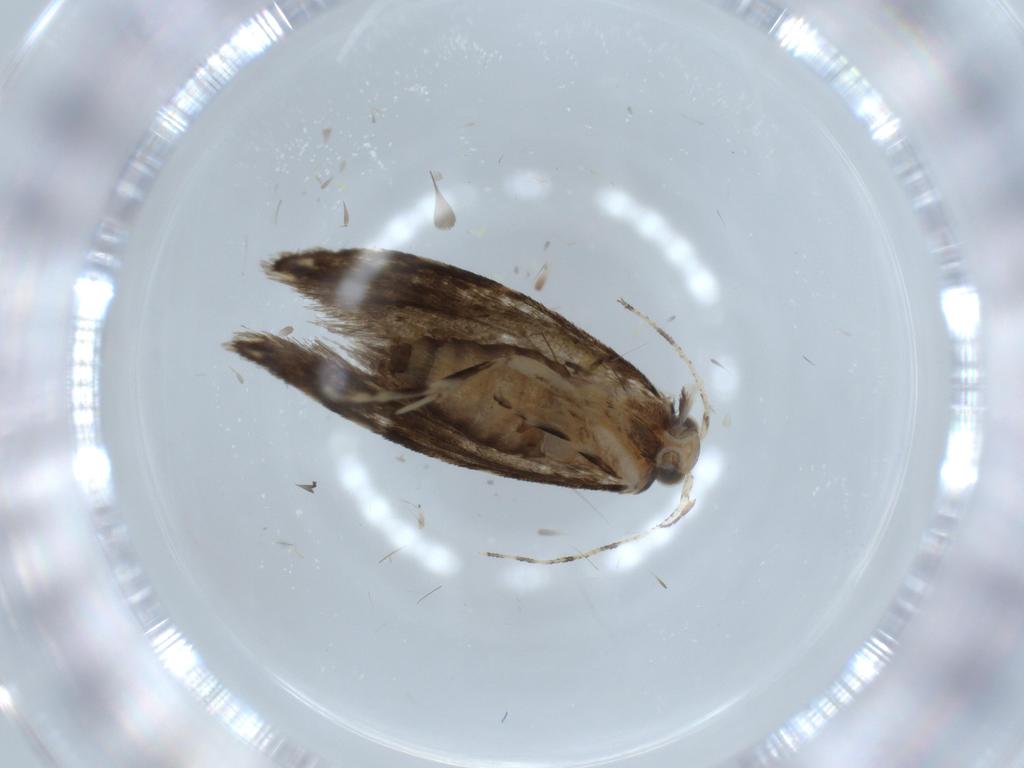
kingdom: Animalia
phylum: Arthropoda
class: Insecta
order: Lepidoptera
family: Tineidae
